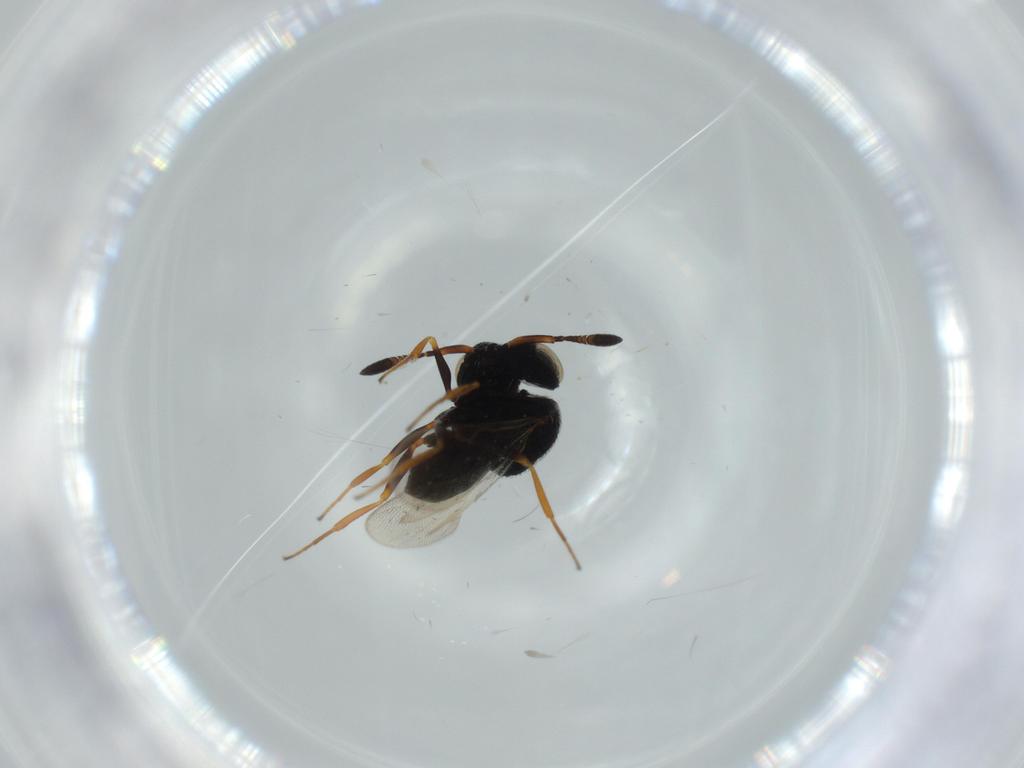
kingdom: Animalia
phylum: Arthropoda
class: Insecta
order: Hymenoptera
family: Scelionidae
